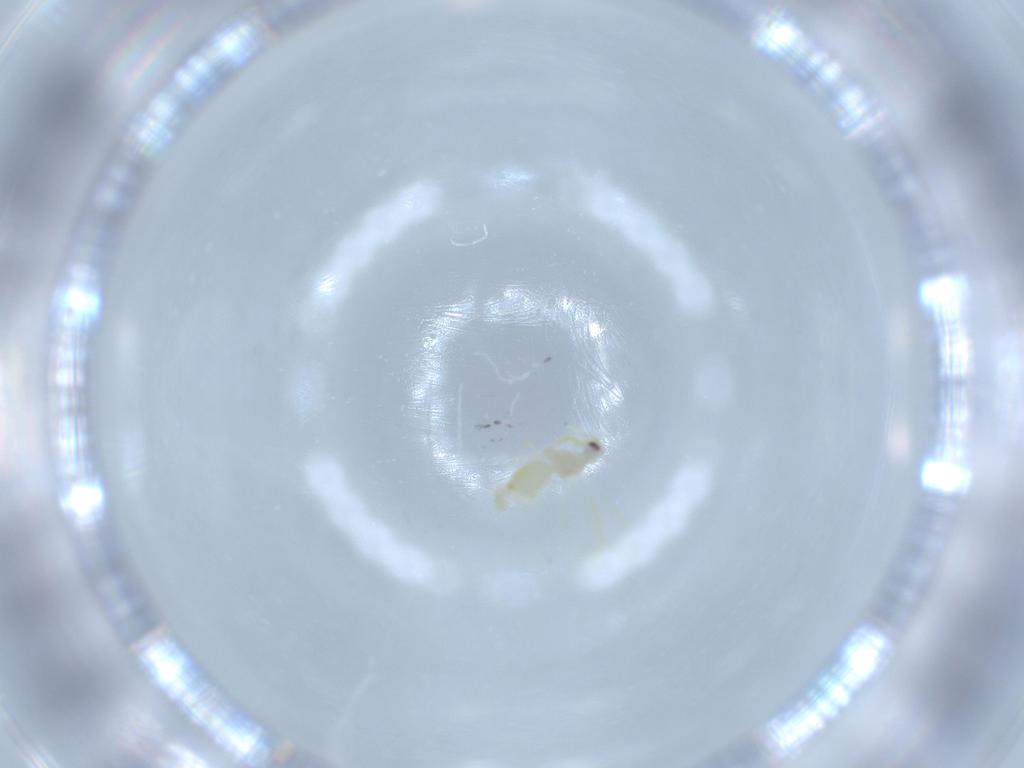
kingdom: Animalia
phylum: Arthropoda
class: Insecta
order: Hemiptera
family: Aleyrodidae
